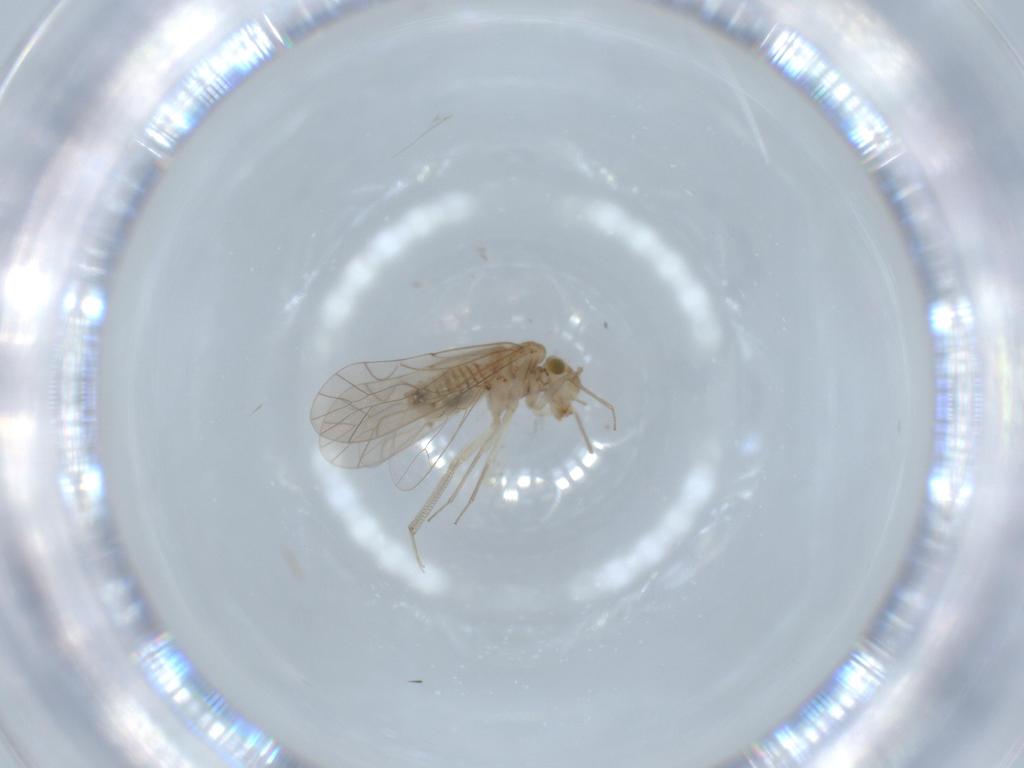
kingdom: Animalia
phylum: Arthropoda
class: Insecta
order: Psocodea
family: Lachesillidae
